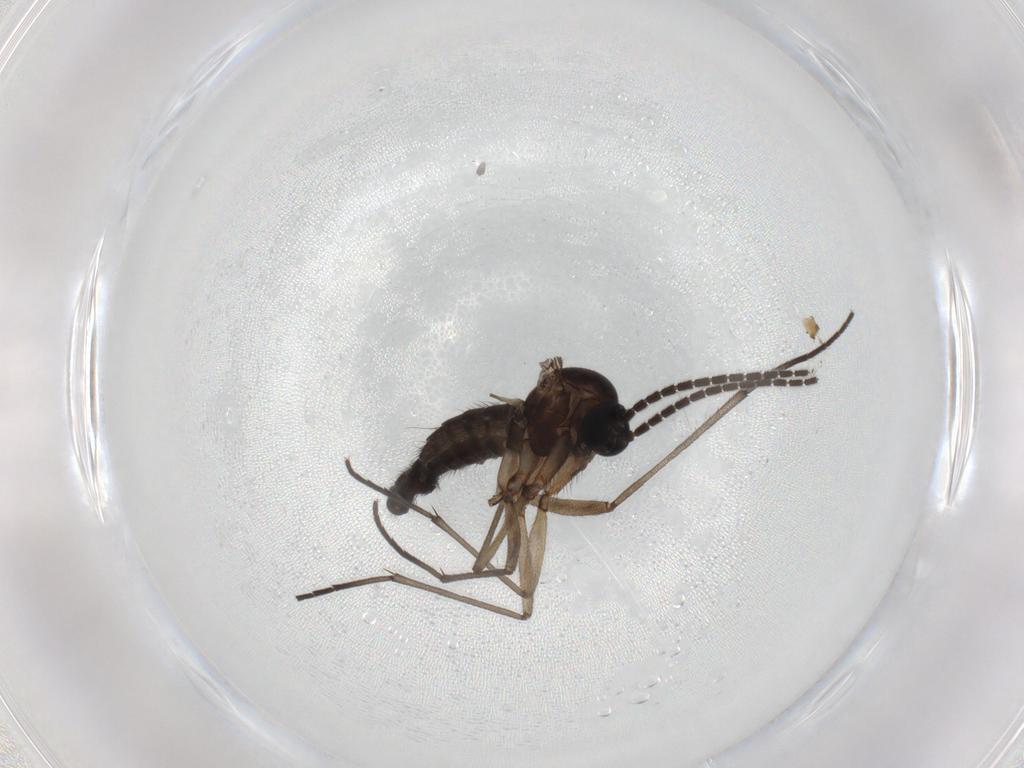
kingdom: Animalia
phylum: Arthropoda
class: Insecta
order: Diptera
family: Sciaridae
